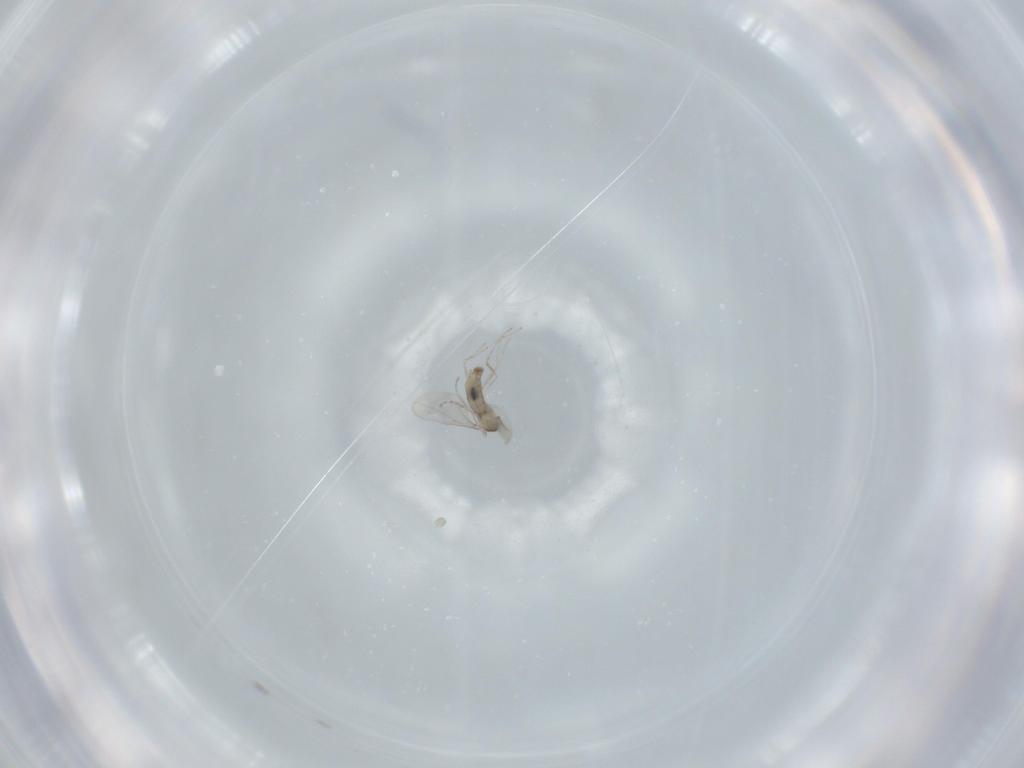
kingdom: Animalia
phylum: Arthropoda
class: Insecta
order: Diptera
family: Cecidomyiidae
